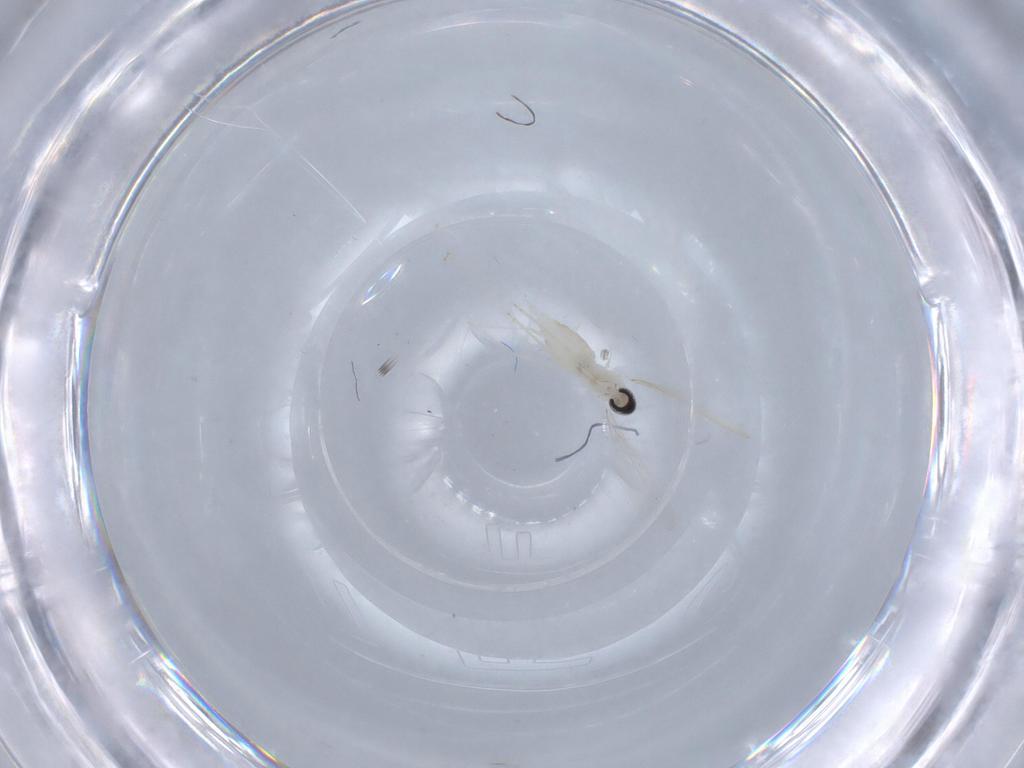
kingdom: Animalia
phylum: Arthropoda
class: Insecta
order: Diptera
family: Cecidomyiidae
